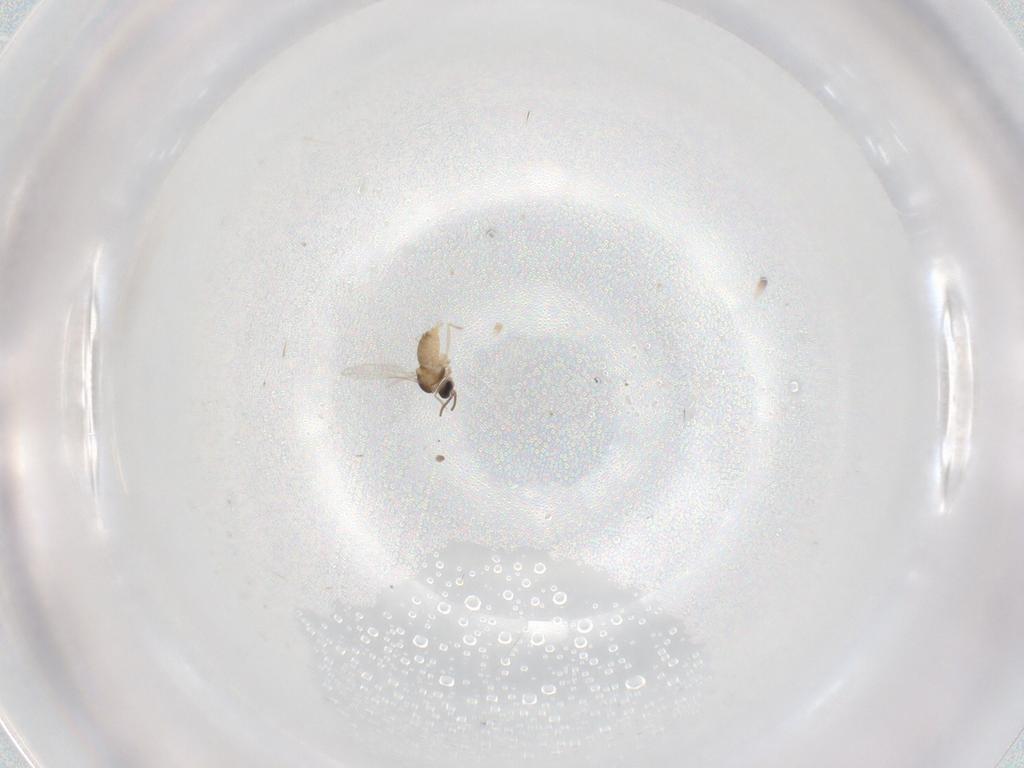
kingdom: Animalia
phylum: Arthropoda
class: Insecta
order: Diptera
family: Cecidomyiidae
